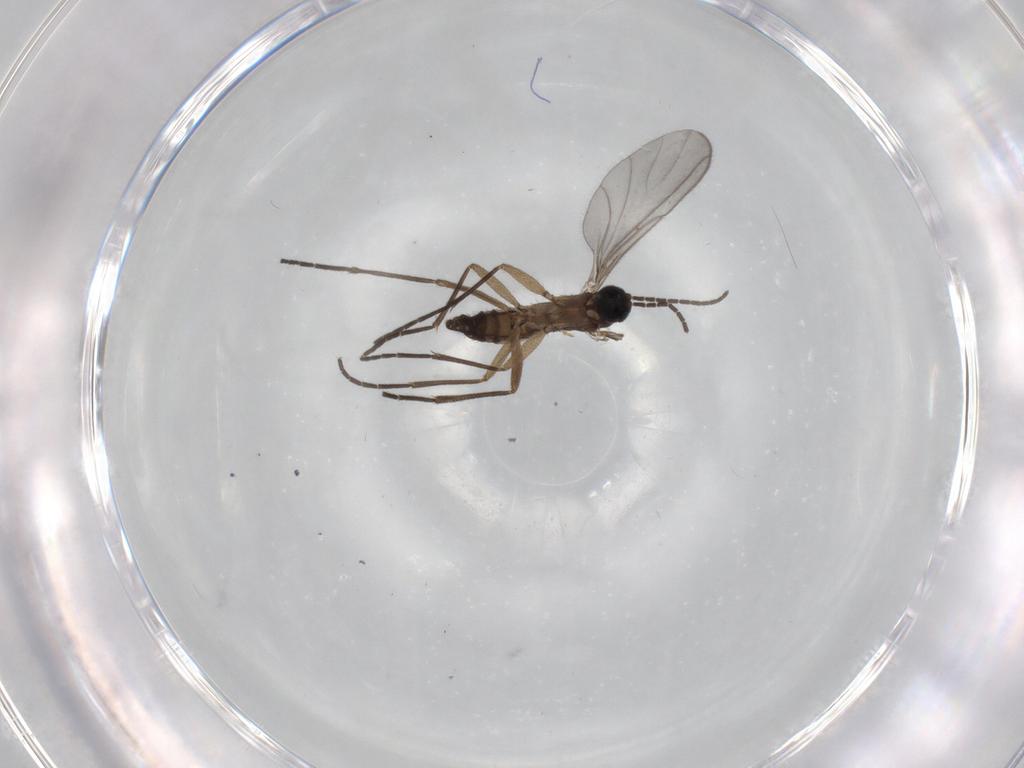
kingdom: Animalia
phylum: Arthropoda
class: Insecta
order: Diptera
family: Sciaridae
